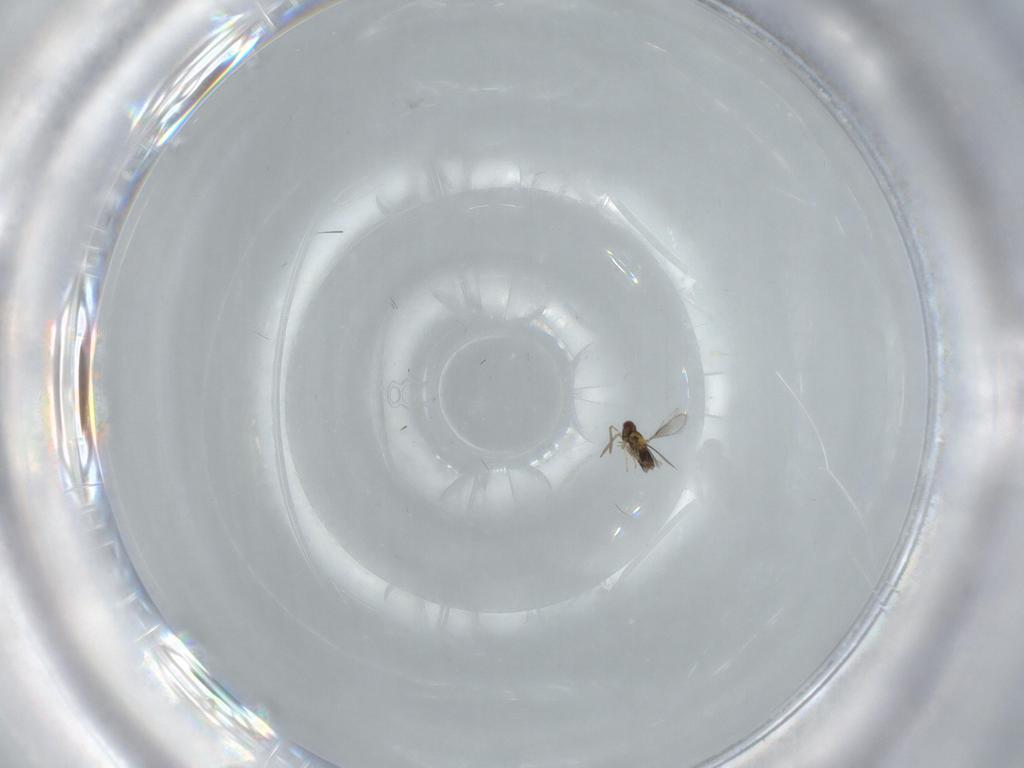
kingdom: Animalia
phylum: Arthropoda
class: Insecta
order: Hymenoptera
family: Aphelinidae
